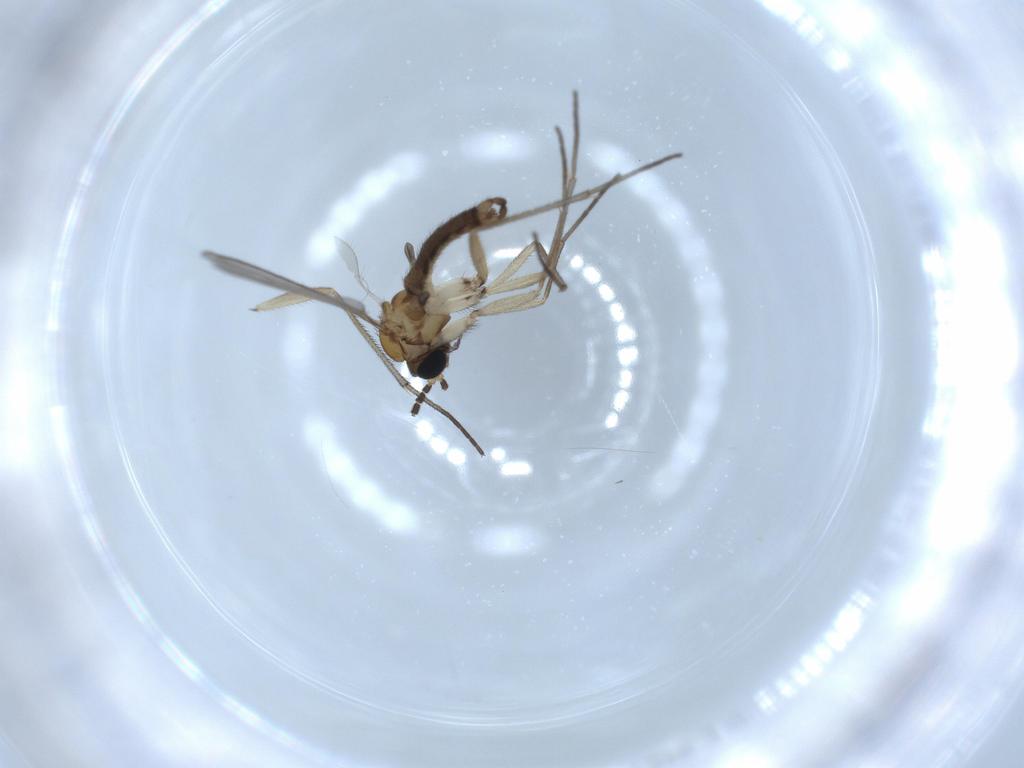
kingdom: Animalia
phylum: Arthropoda
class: Insecta
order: Diptera
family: Sciaridae
